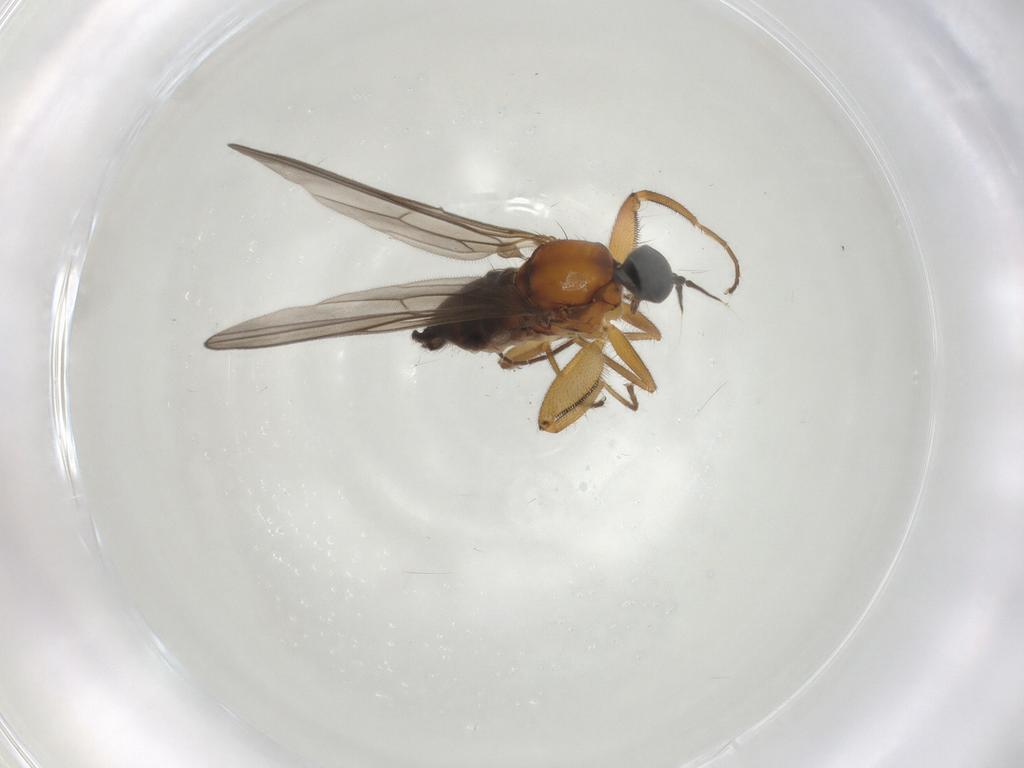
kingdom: Animalia
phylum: Arthropoda
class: Insecta
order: Diptera
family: Hybotidae
